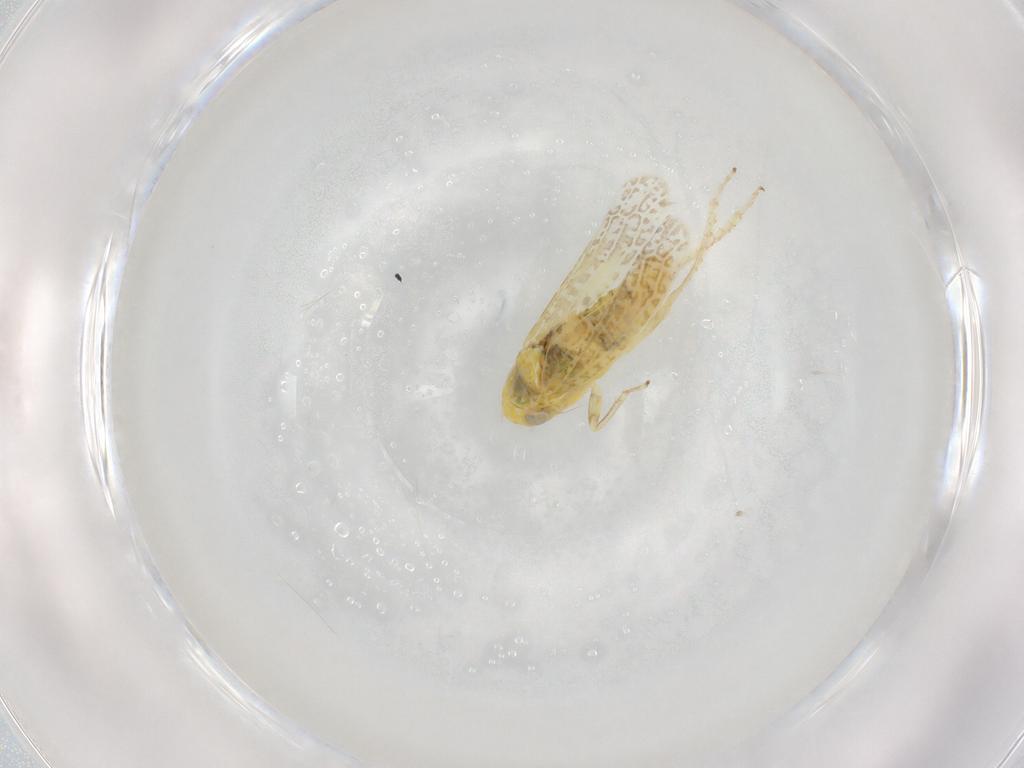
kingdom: Animalia
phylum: Arthropoda
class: Insecta
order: Hemiptera
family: Cicadellidae
